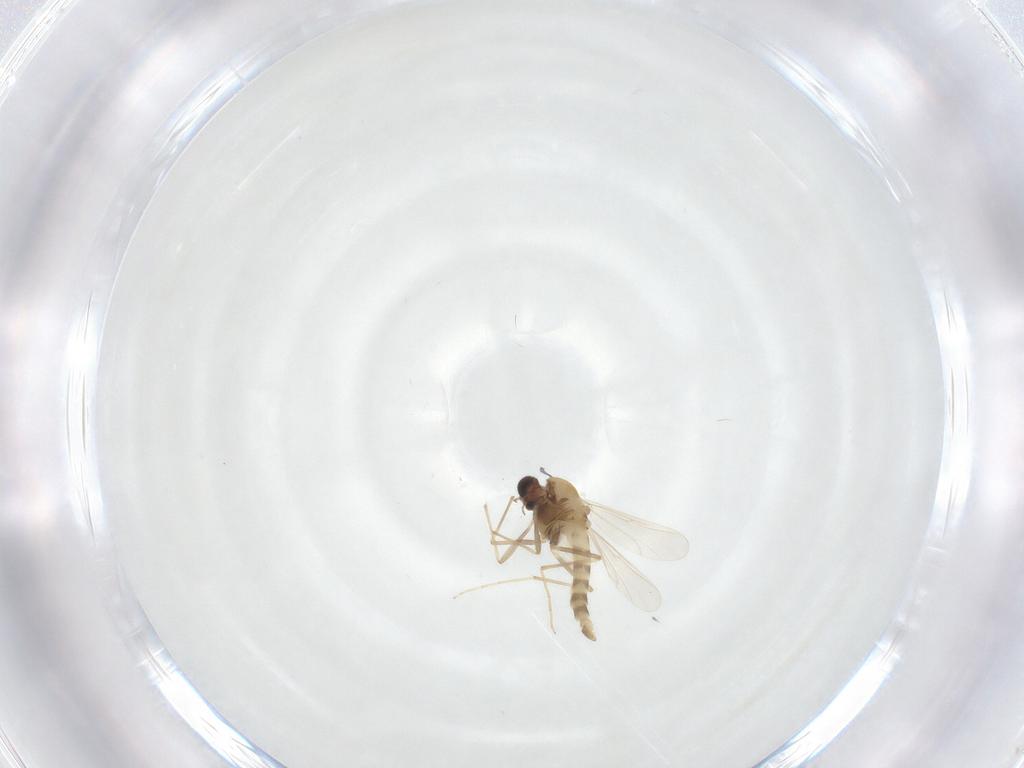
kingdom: Animalia
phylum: Arthropoda
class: Insecta
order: Diptera
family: Chironomidae
